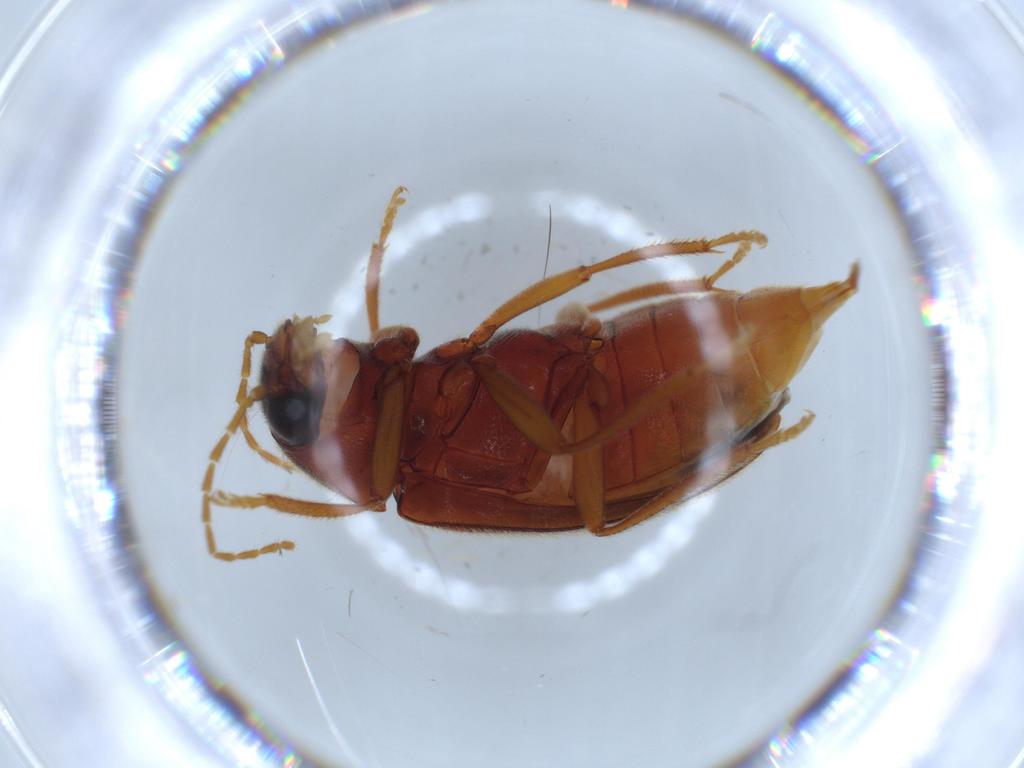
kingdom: Animalia
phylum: Arthropoda
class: Insecta
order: Coleoptera
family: Ptilodactylidae
